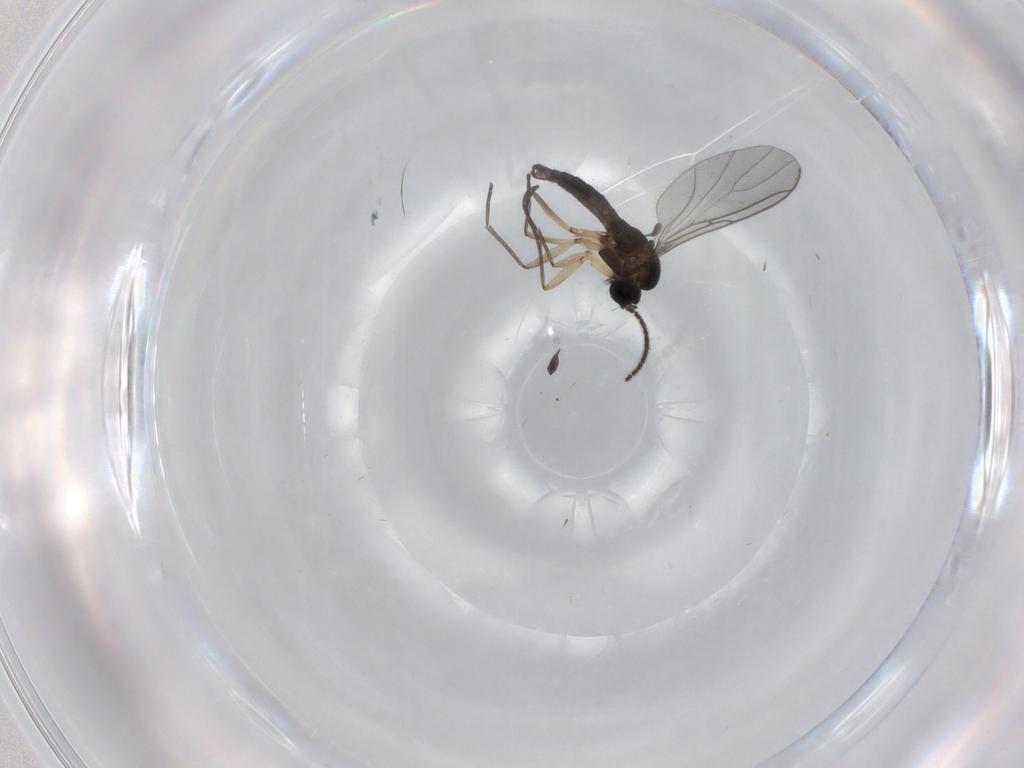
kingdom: Animalia
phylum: Arthropoda
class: Insecta
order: Diptera
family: Sciaridae
